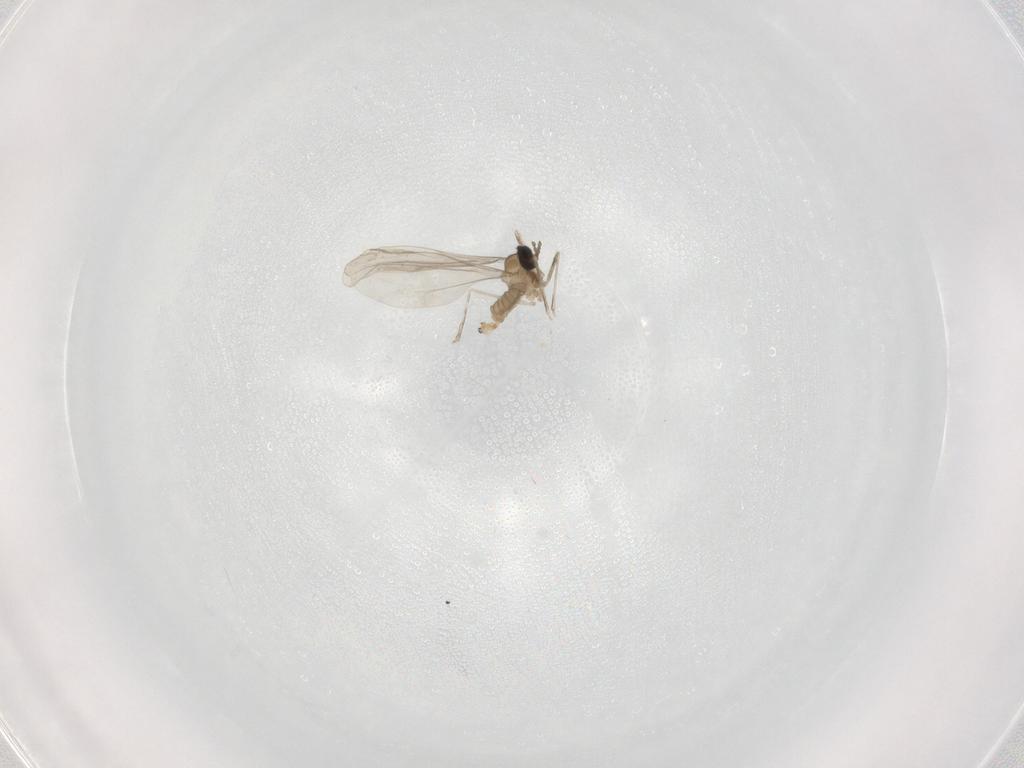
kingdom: Animalia
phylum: Arthropoda
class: Insecta
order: Diptera
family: Cecidomyiidae
